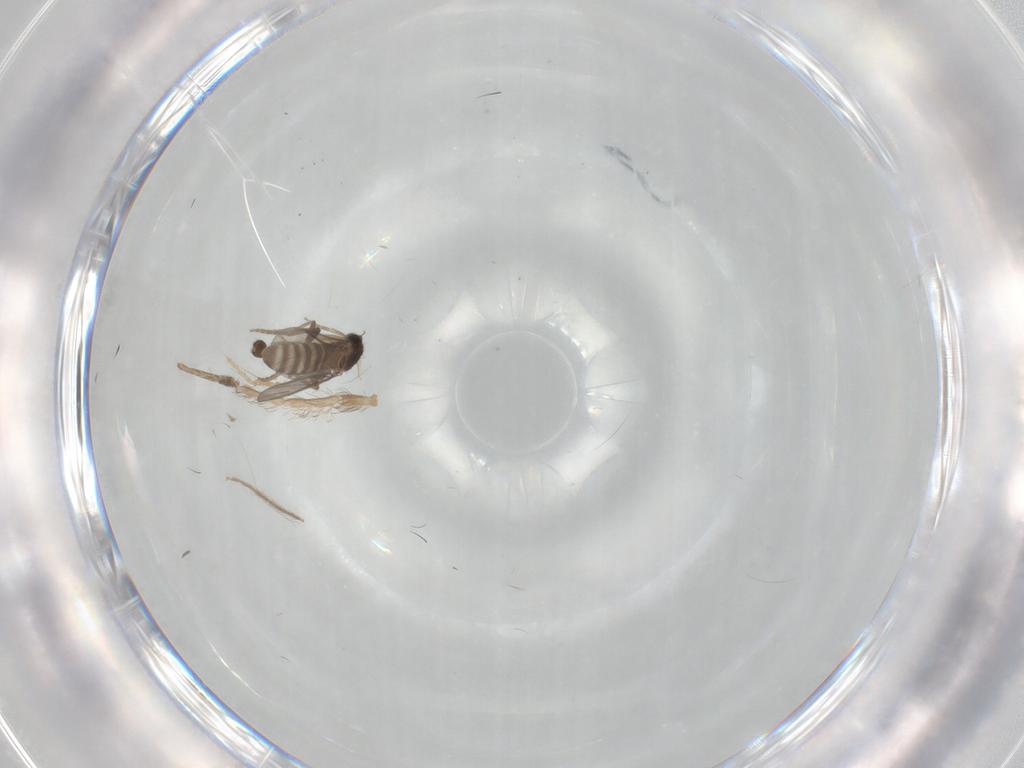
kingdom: Animalia
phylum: Arthropoda
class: Insecta
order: Diptera
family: Phoridae
